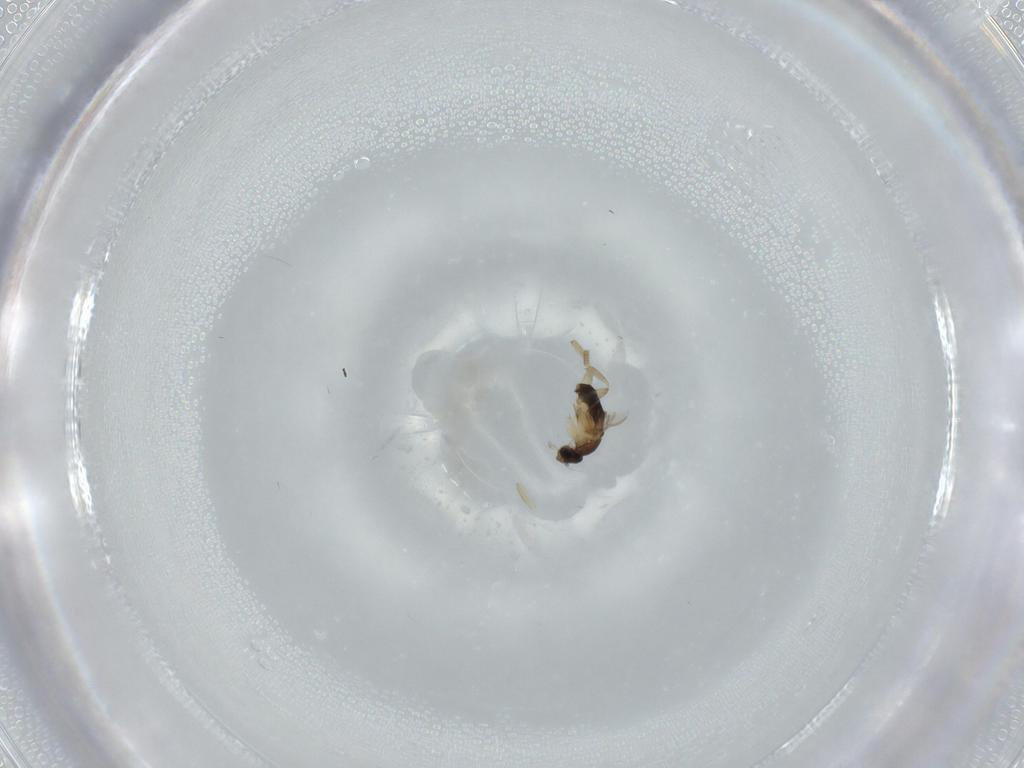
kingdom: Animalia
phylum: Arthropoda
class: Insecta
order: Diptera
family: Phoridae
